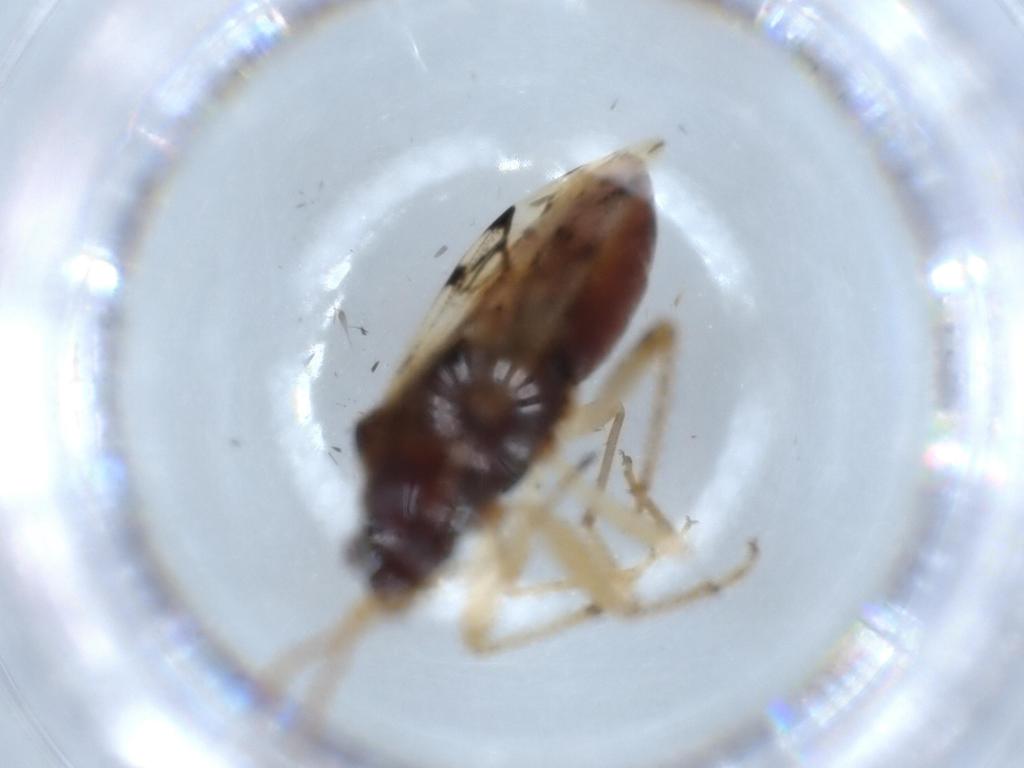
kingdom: Animalia
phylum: Arthropoda
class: Insecta
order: Hemiptera
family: Rhyparochromidae
